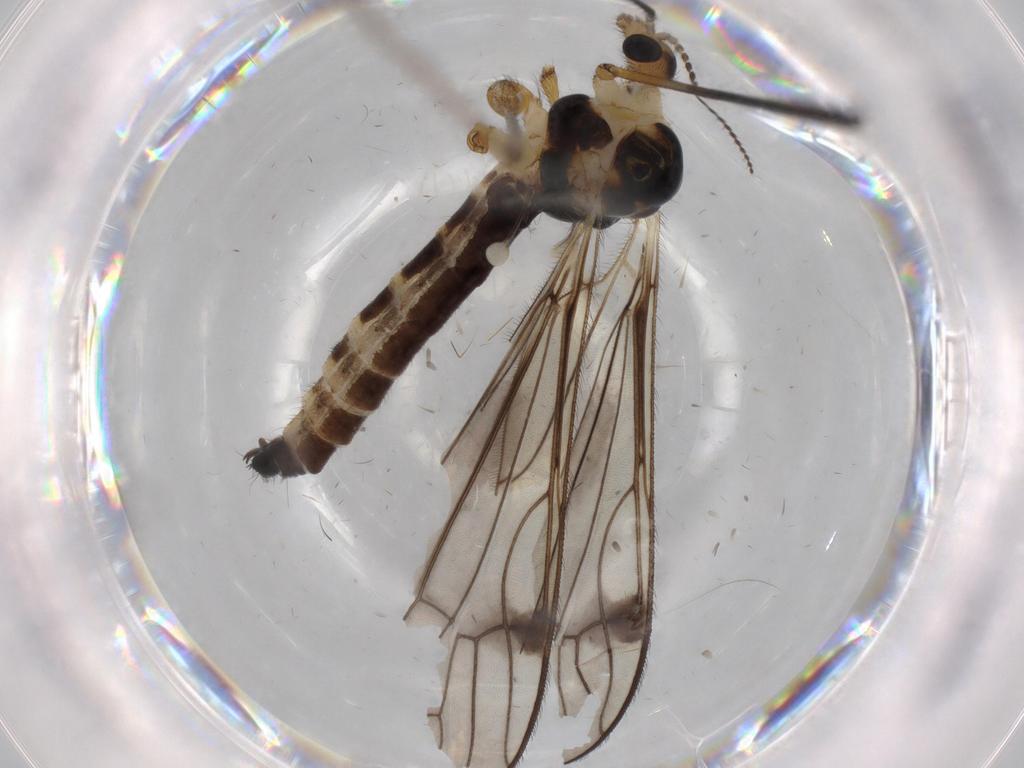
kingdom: Animalia
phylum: Arthropoda
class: Insecta
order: Diptera
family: Limoniidae
